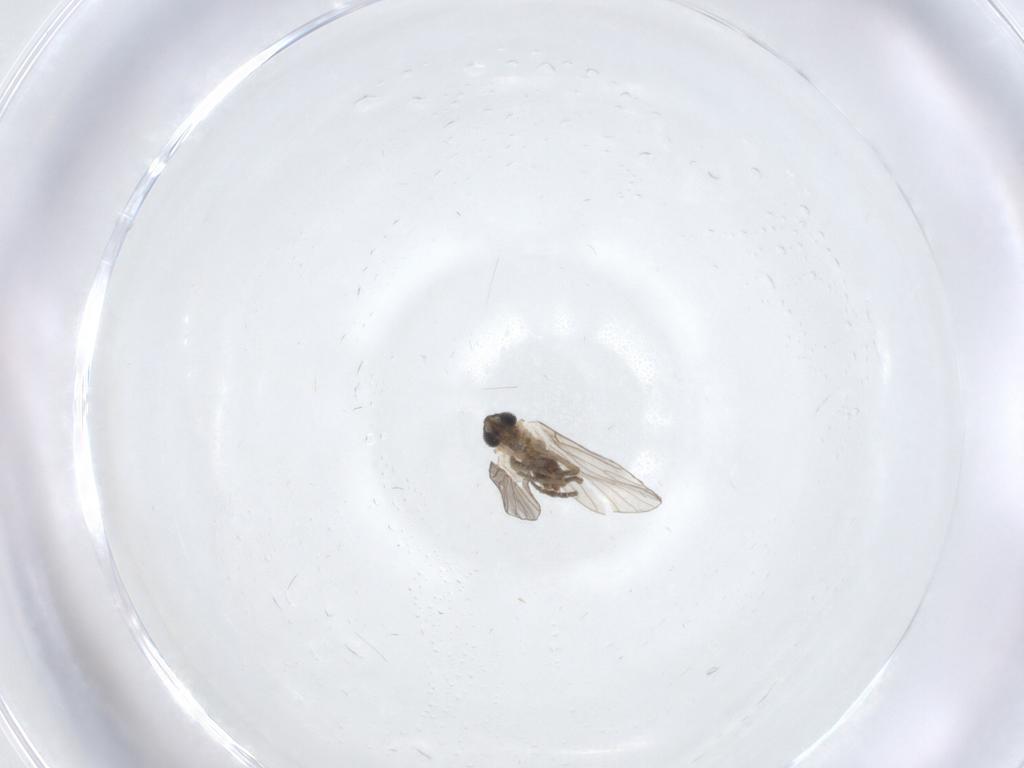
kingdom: Animalia
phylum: Arthropoda
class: Insecta
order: Diptera
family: Psychodidae
